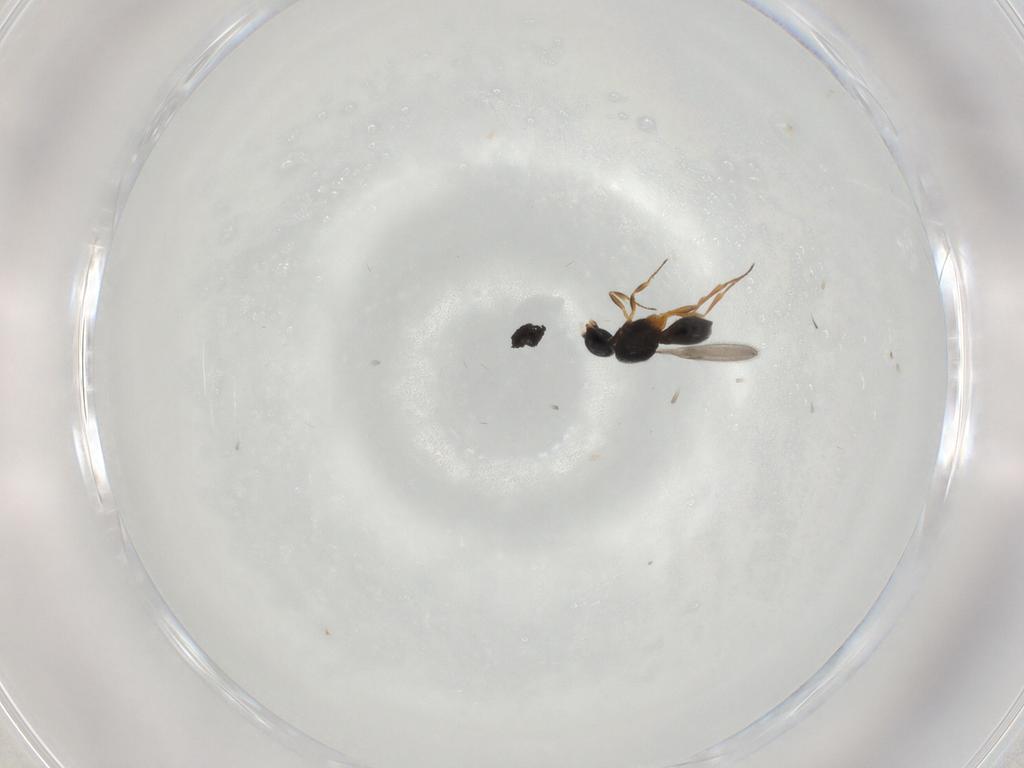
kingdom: Animalia
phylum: Arthropoda
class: Insecta
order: Hymenoptera
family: Scelionidae
